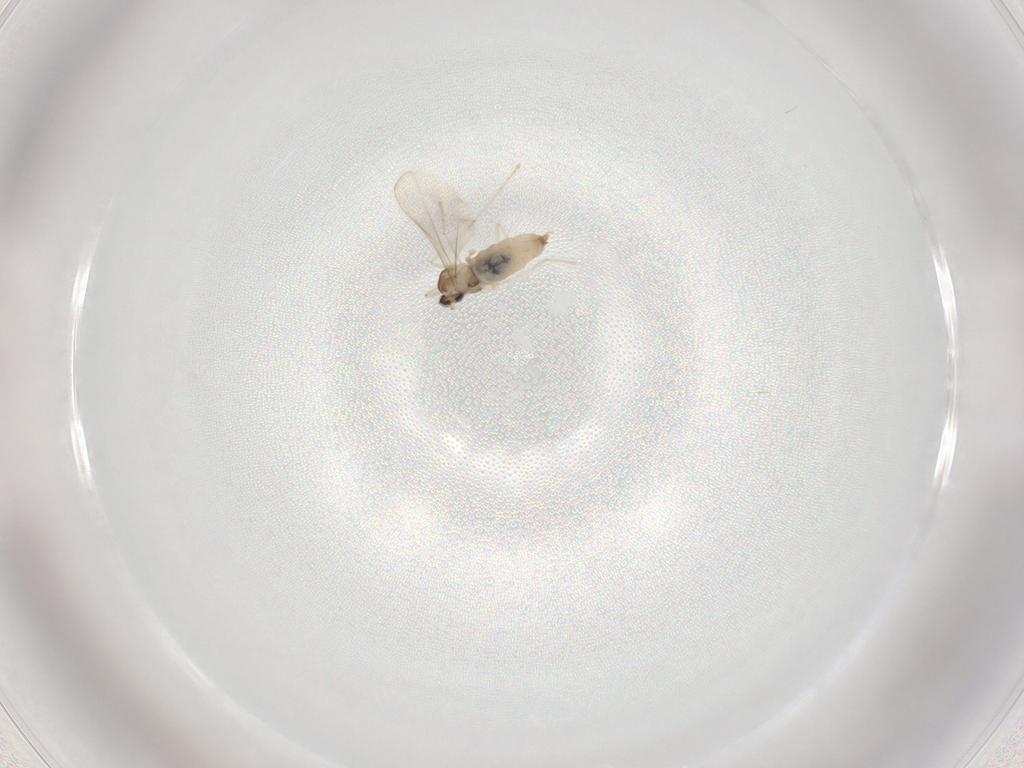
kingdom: Animalia
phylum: Arthropoda
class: Insecta
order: Diptera
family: Cecidomyiidae
